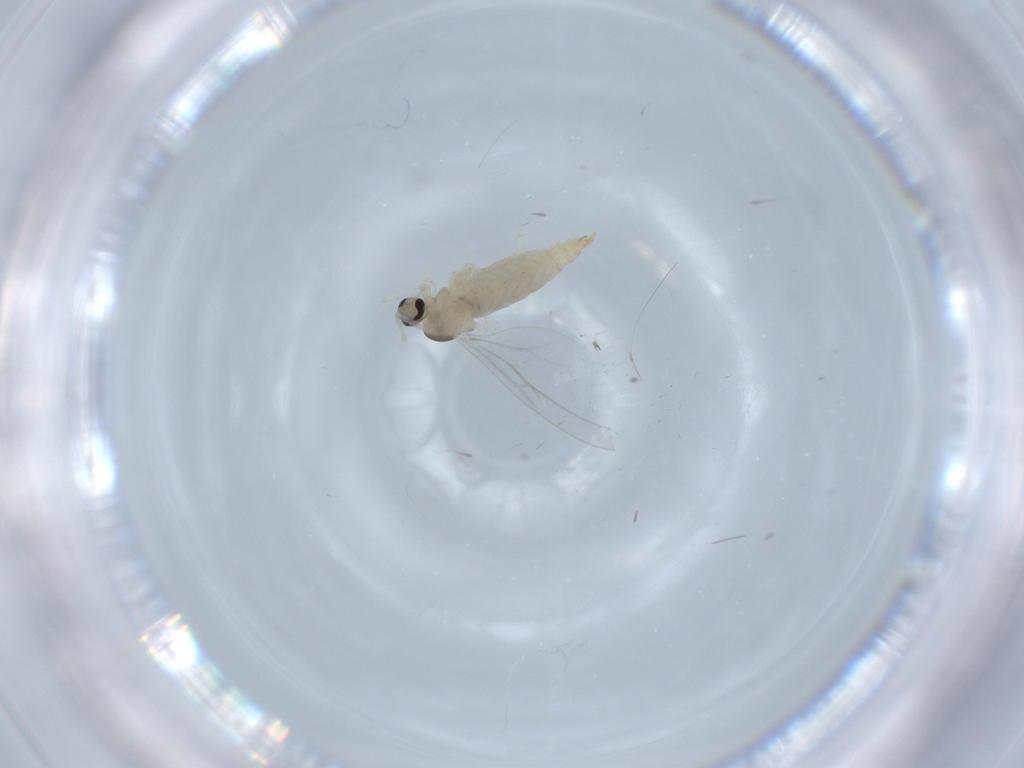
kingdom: Animalia
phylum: Arthropoda
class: Insecta
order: Diptera
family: Cecidomyiidae
